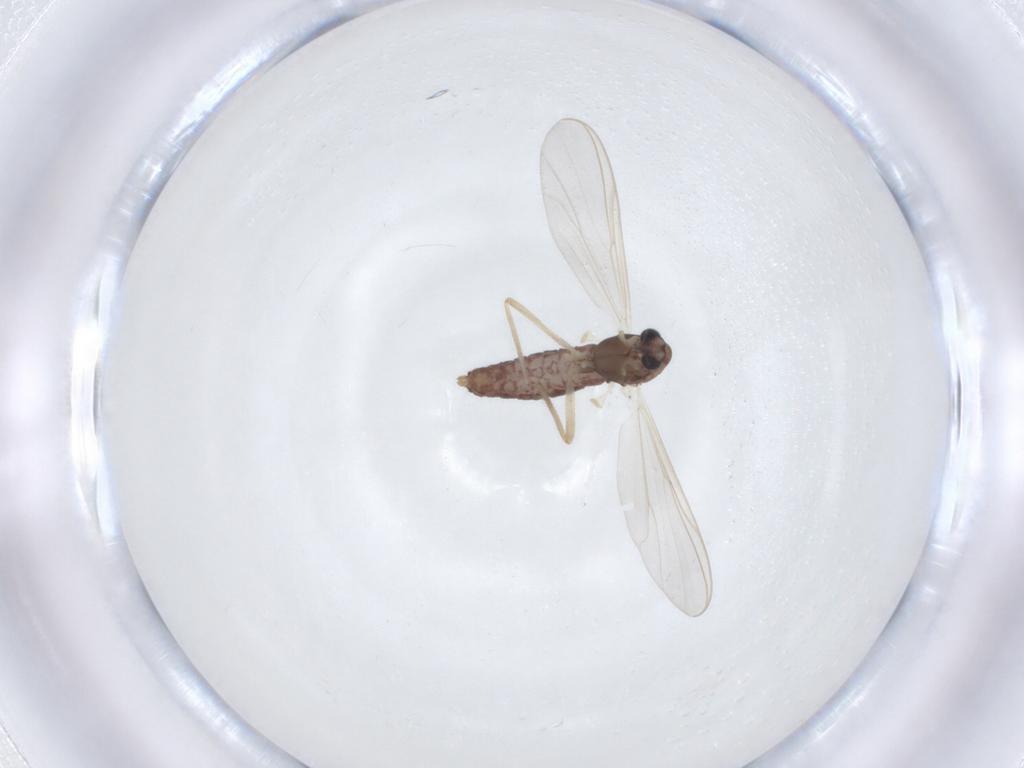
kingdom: Animalia
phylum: Arthropoda
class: Insecta
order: Diptera
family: Chironomidae
